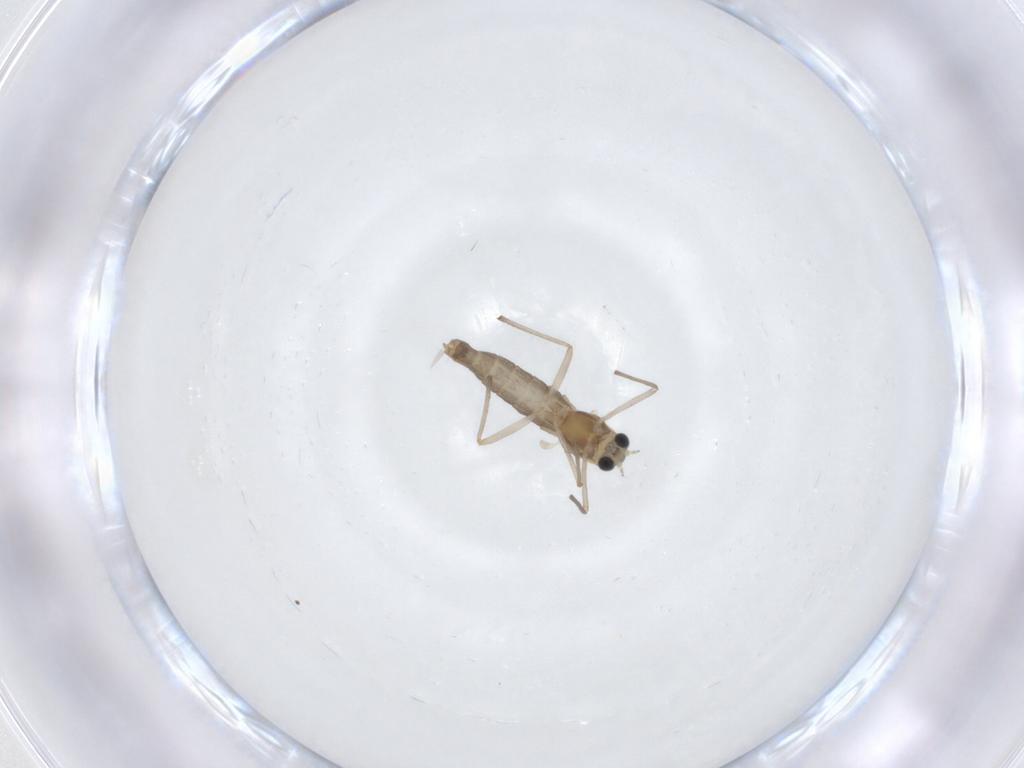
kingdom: Animalia
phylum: Arthropoda
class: Insecta
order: Diptera
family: Chironomidae
